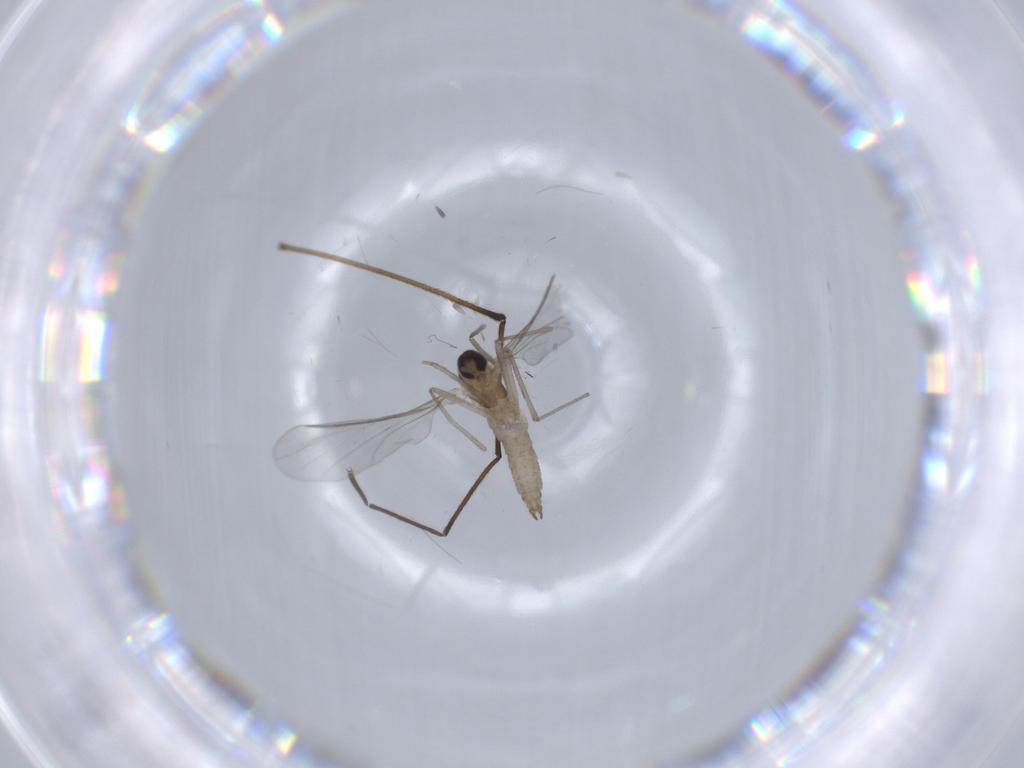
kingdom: Animalia
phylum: Arthropoda
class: Insecta
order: Diptera
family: Cecidomyiidae
